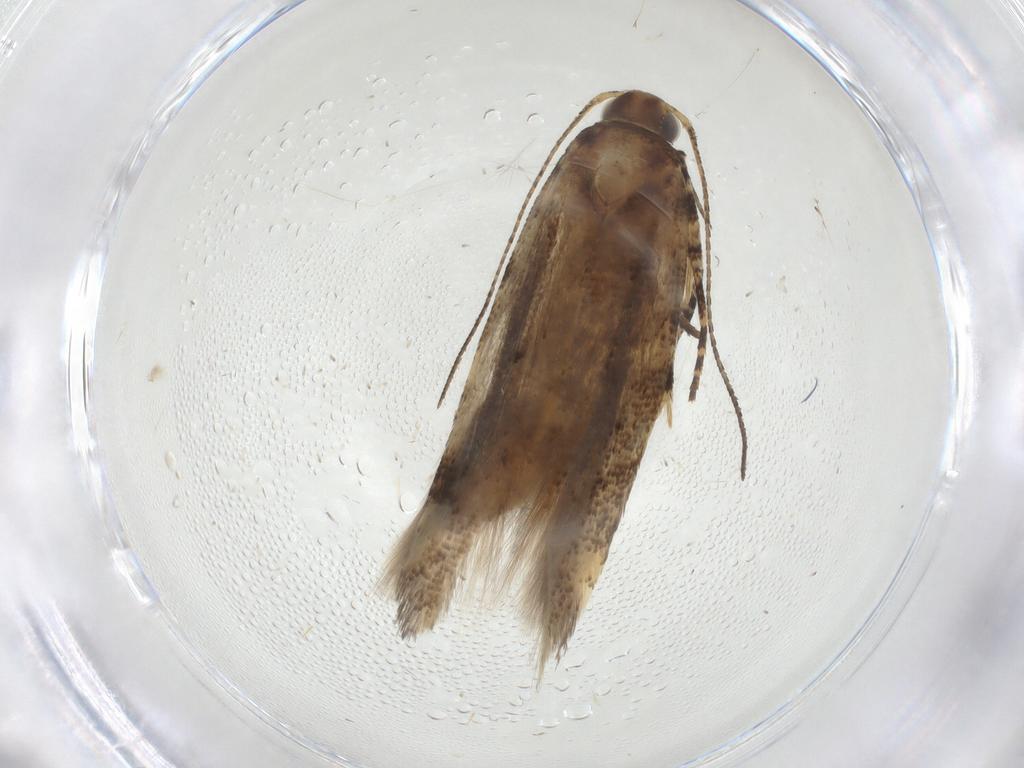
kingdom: Animalia
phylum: Arthropoda
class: Insecta
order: Lepidoptera
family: Gelechiidae
